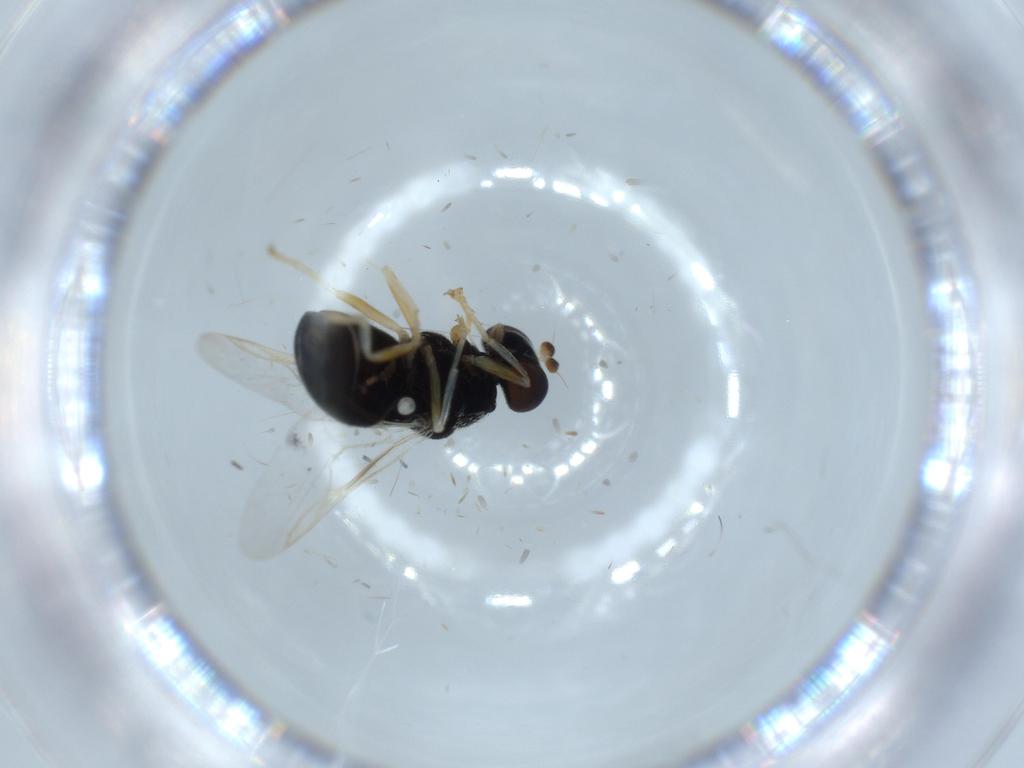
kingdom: Animalia
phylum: Arthropoda
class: Insecta
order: Diptera
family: Stratiomyidae
